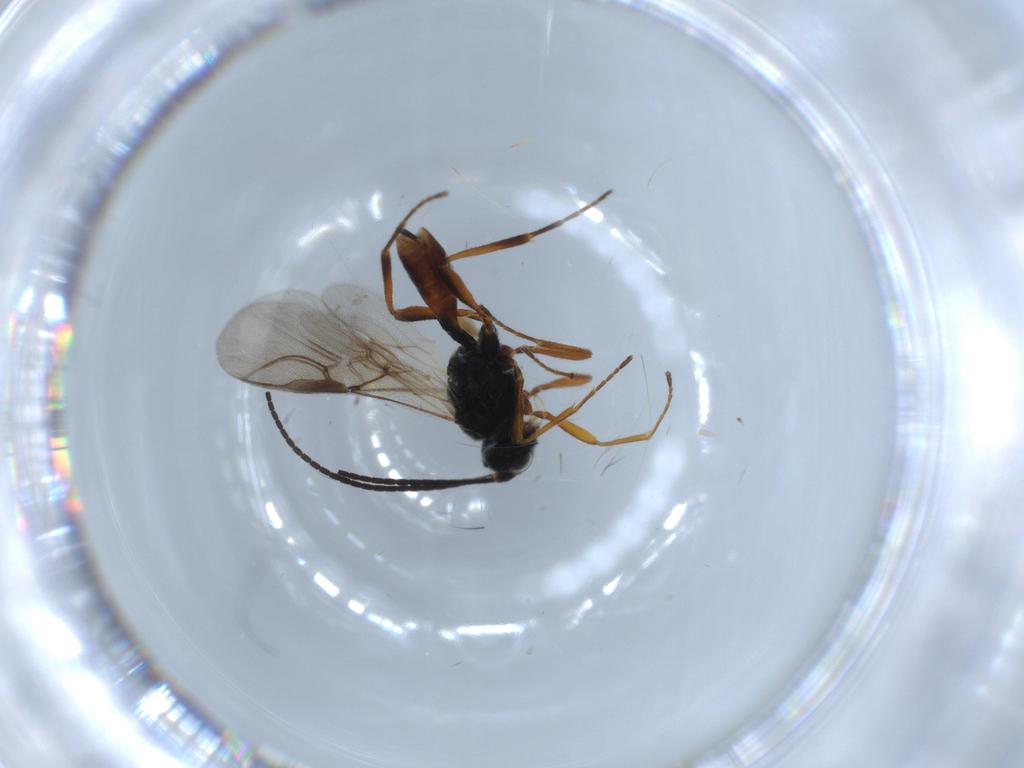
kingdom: Animalia
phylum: Arthropoda
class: Insecta
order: Hymenoptera
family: Braconidae
